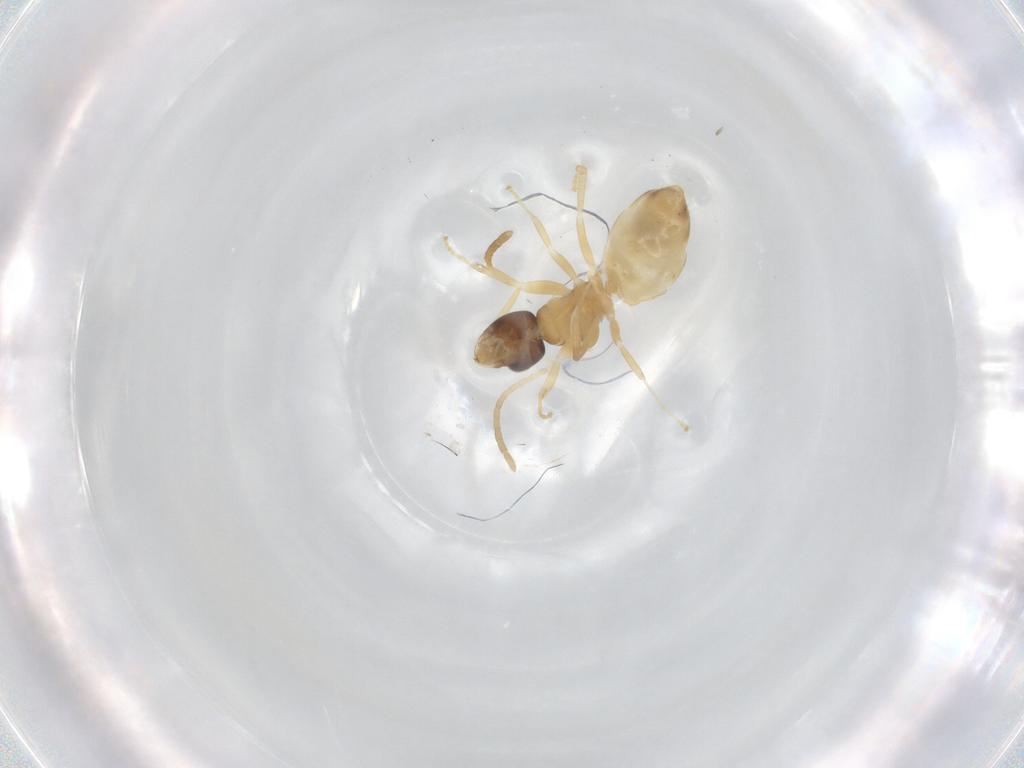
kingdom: Animalia
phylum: Arthropoda
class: Insecta
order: Hymenoptera
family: Formicidae
